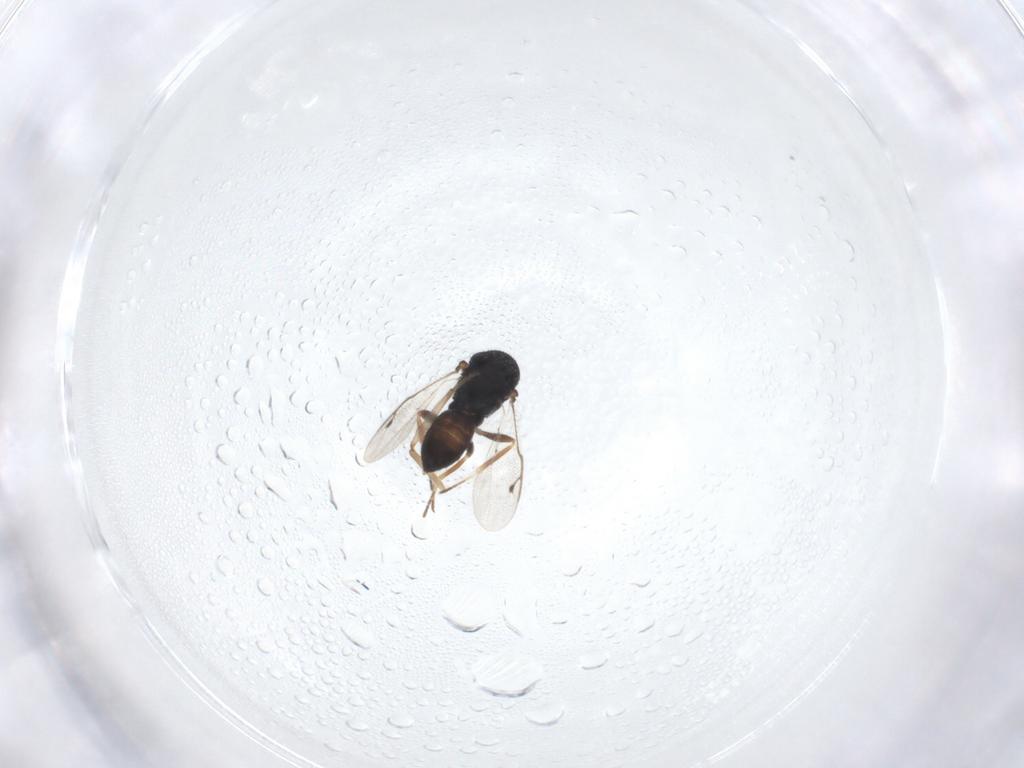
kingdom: Animalia
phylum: Arthropoda
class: Insecta
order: Hymenoptera
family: Pteromalidae
